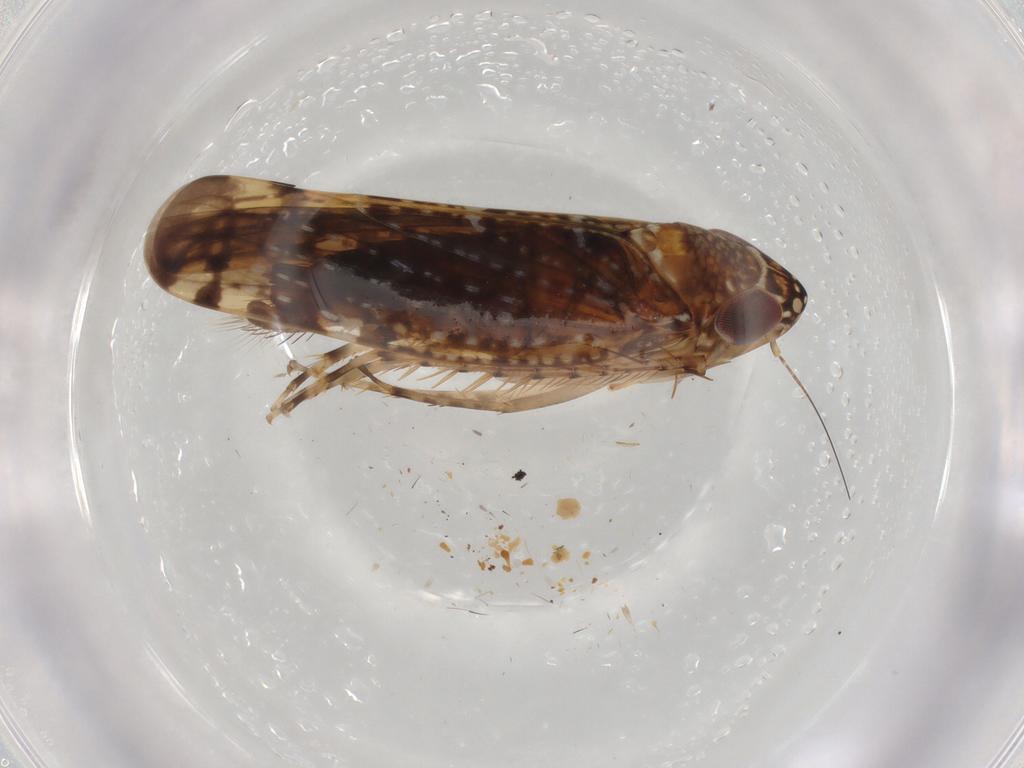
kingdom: Animalia
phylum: Arthropoda
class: Insecta
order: Hemiptera
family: Cicadellidae
